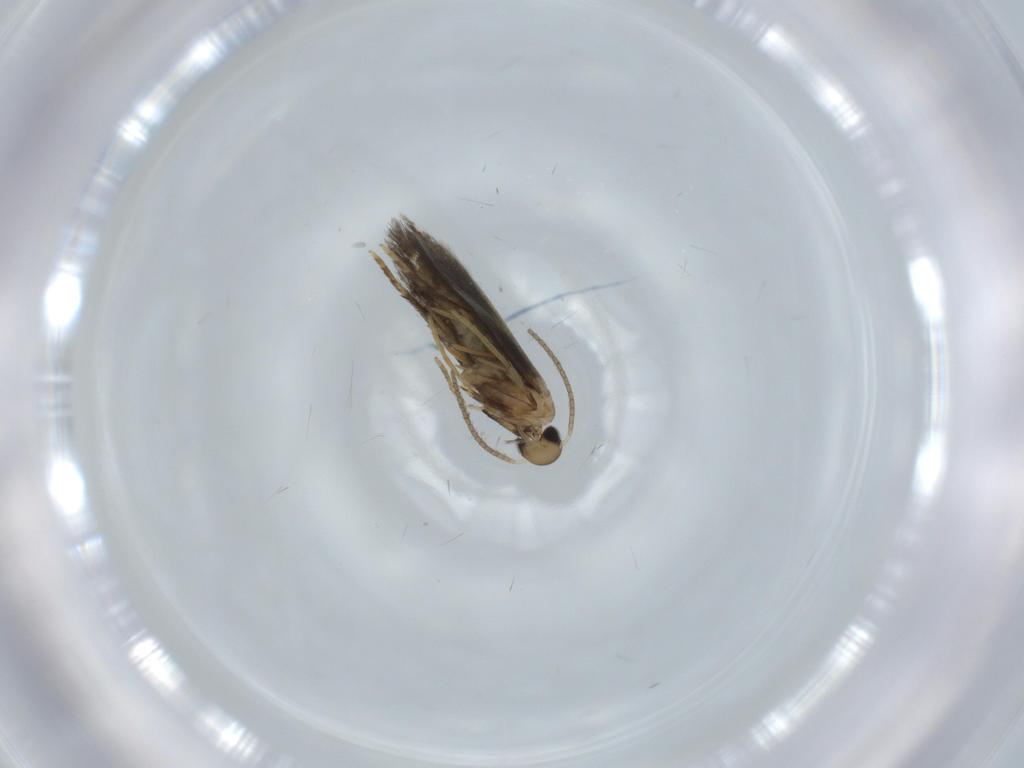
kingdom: Animalia
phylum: Arthropoda
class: Insecta
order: Lepidoptera
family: Heliozelidae
